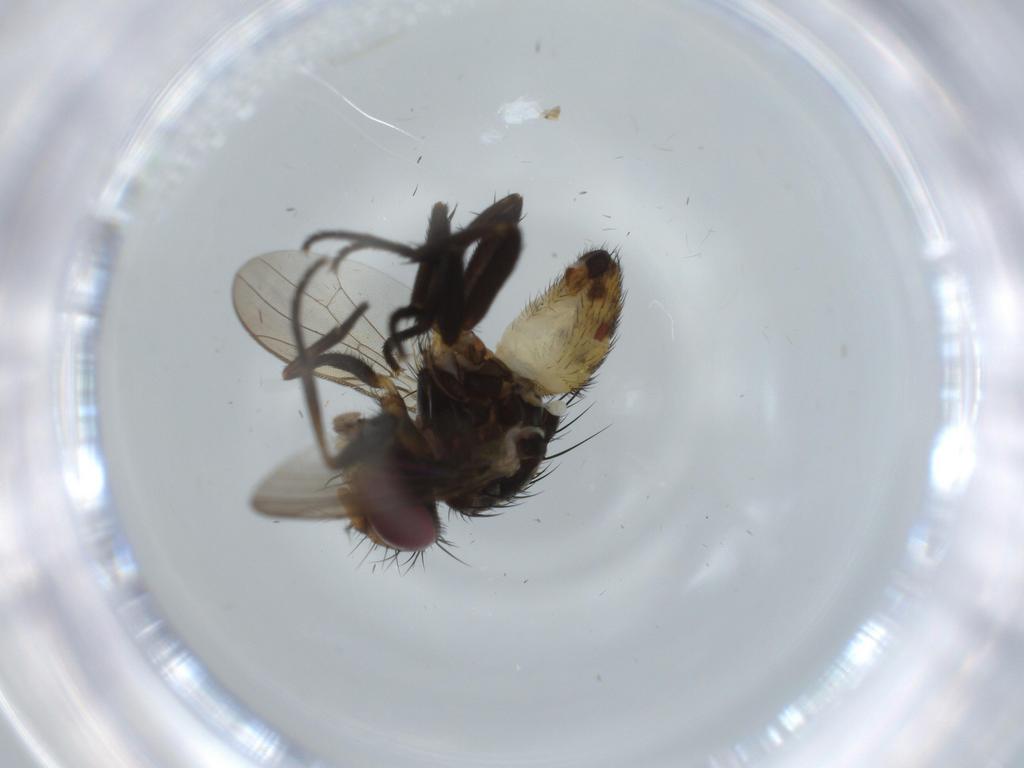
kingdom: Animalia
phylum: Arthropoda
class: Insecta
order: Diptera
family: Anthomyiidae
